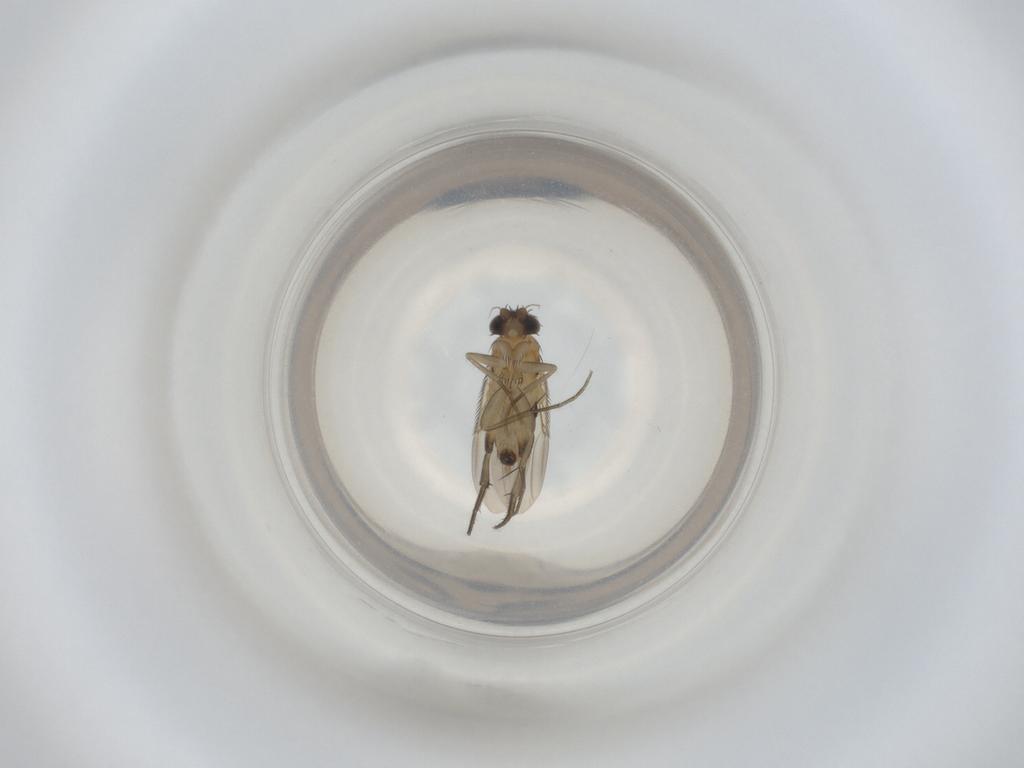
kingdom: Animalia
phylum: Arthropoda
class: Insecta
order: Diptera
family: Phoridae
